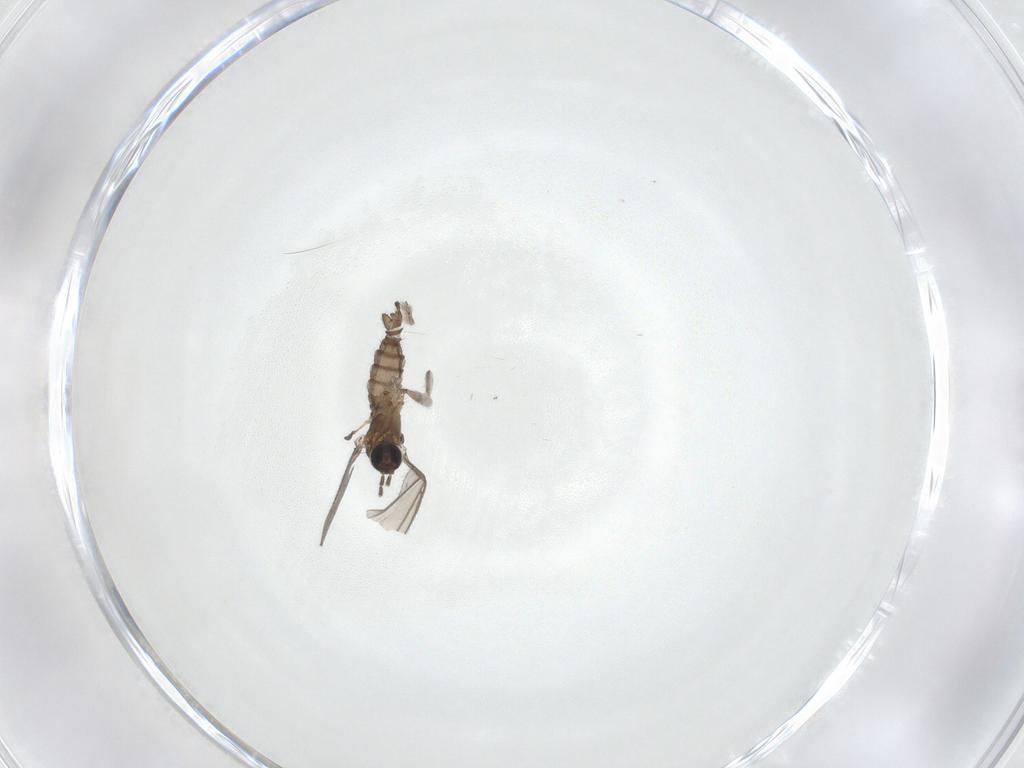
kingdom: Animalia
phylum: Arthropoda
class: Insecta
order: Diptera
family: Sciaridae
